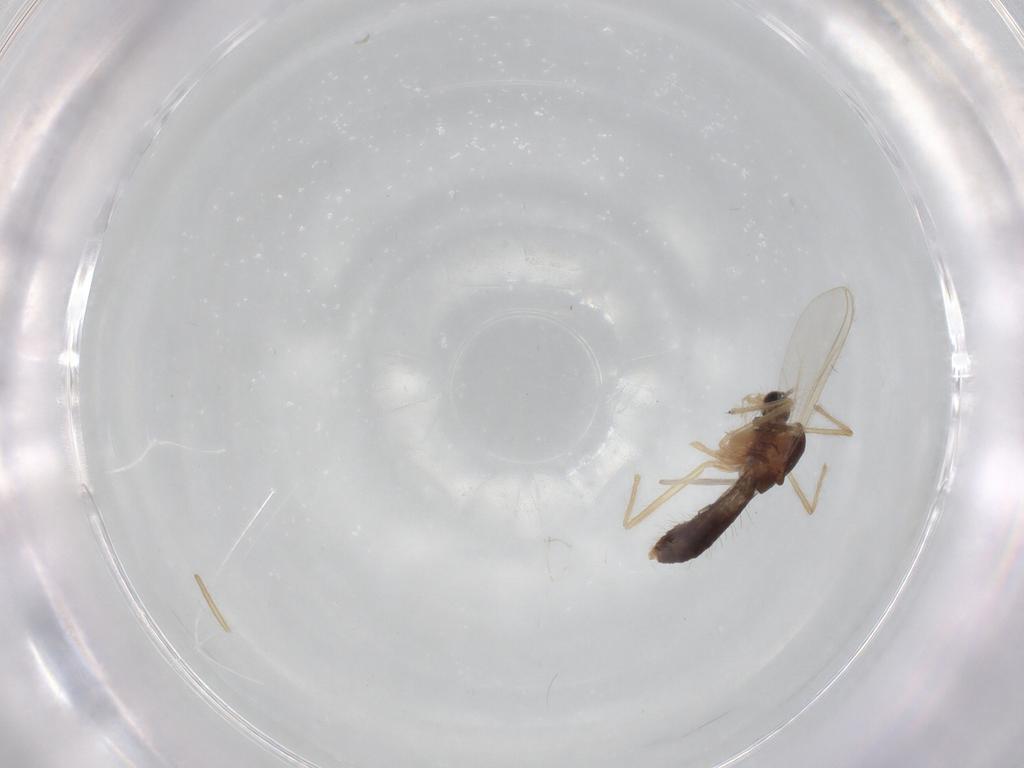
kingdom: Animalia
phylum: Arthropoda
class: Insecta
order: Diptera
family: Chironomidae
